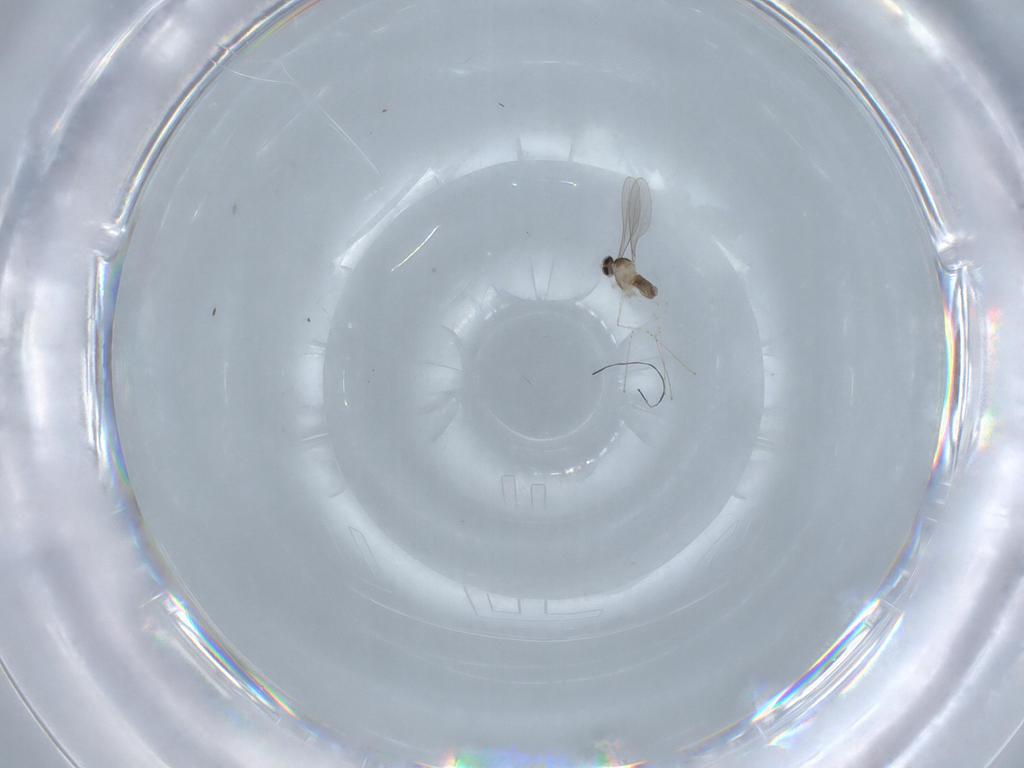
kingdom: Animalia
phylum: Arthropoda
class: Insecta
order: Diptera
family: Cecidomyiidae
